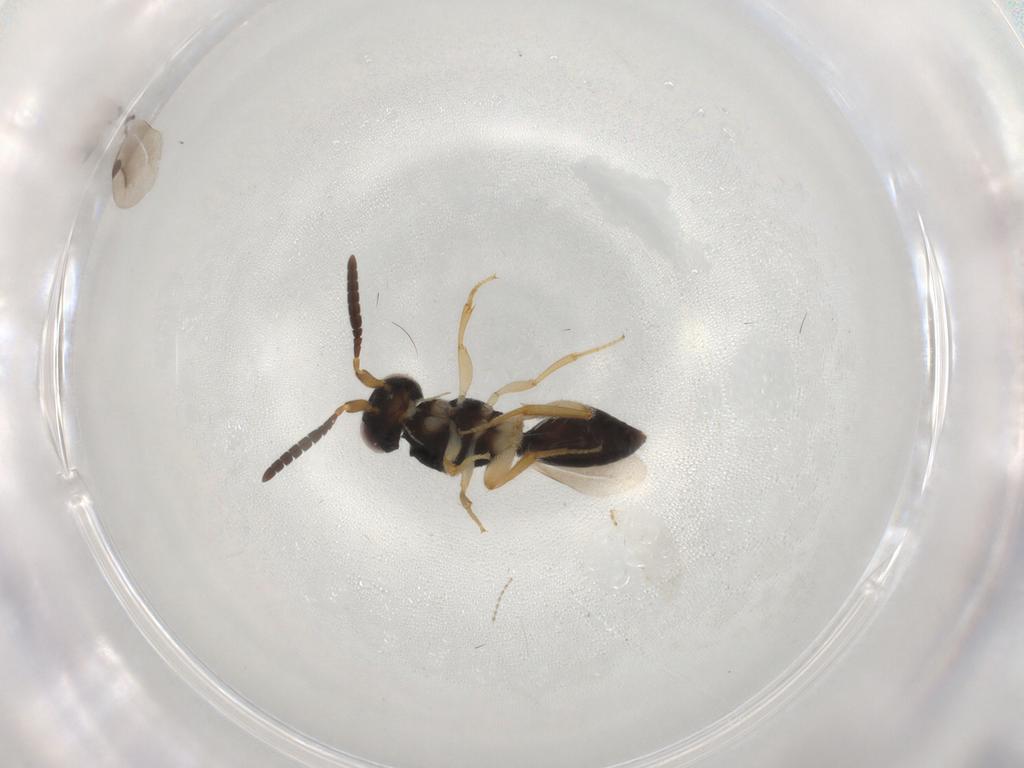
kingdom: Animalia
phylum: Arthropoda
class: Insecta
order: Hymenoptera
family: Megaspilidae
